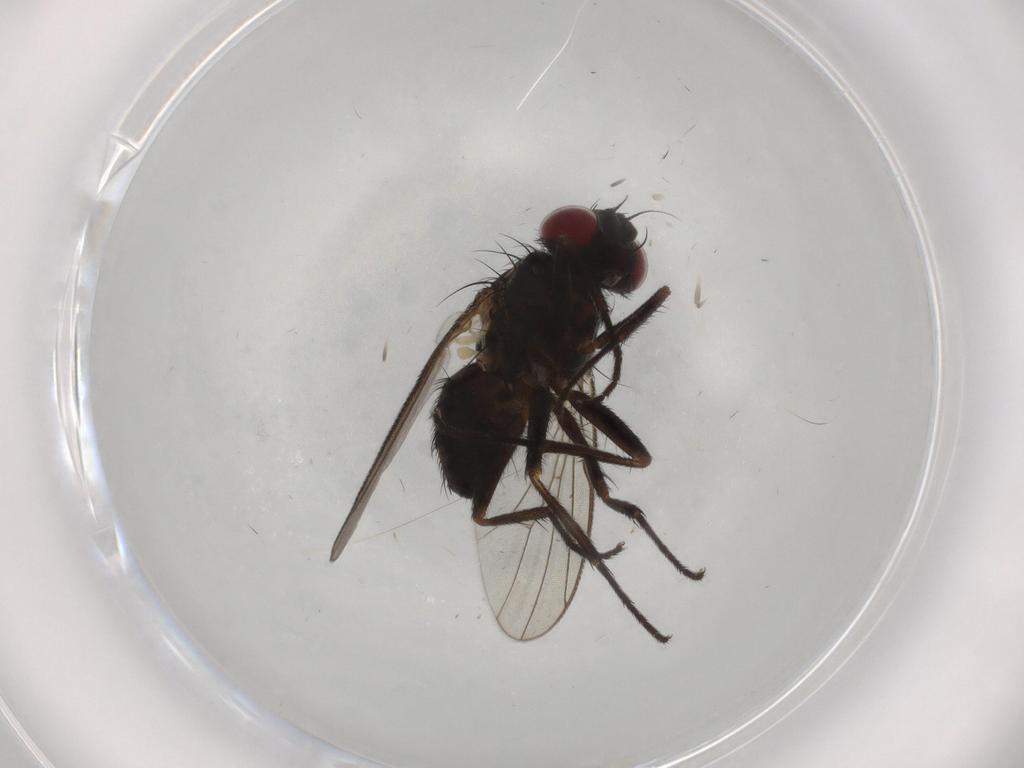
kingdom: Animalia
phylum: Arthropoda
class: Insecta
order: Diptera
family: Muscidae
